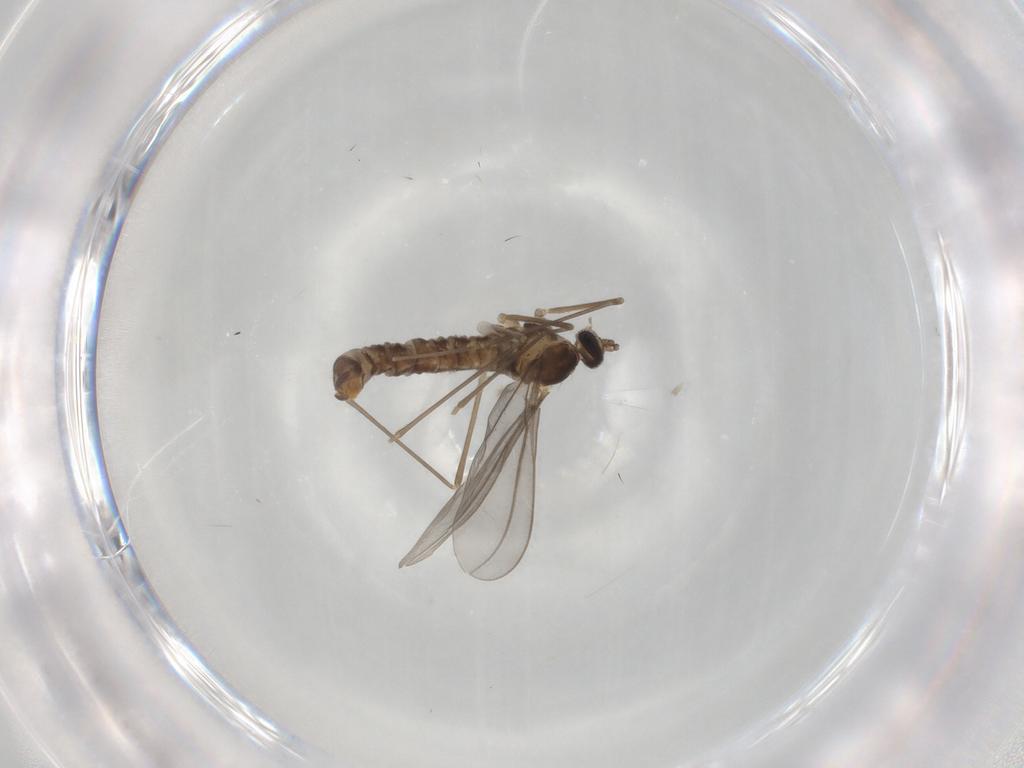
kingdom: Animalia
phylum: Arthropoda
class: Insecta
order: Diptera
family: Cecidomyiidae
